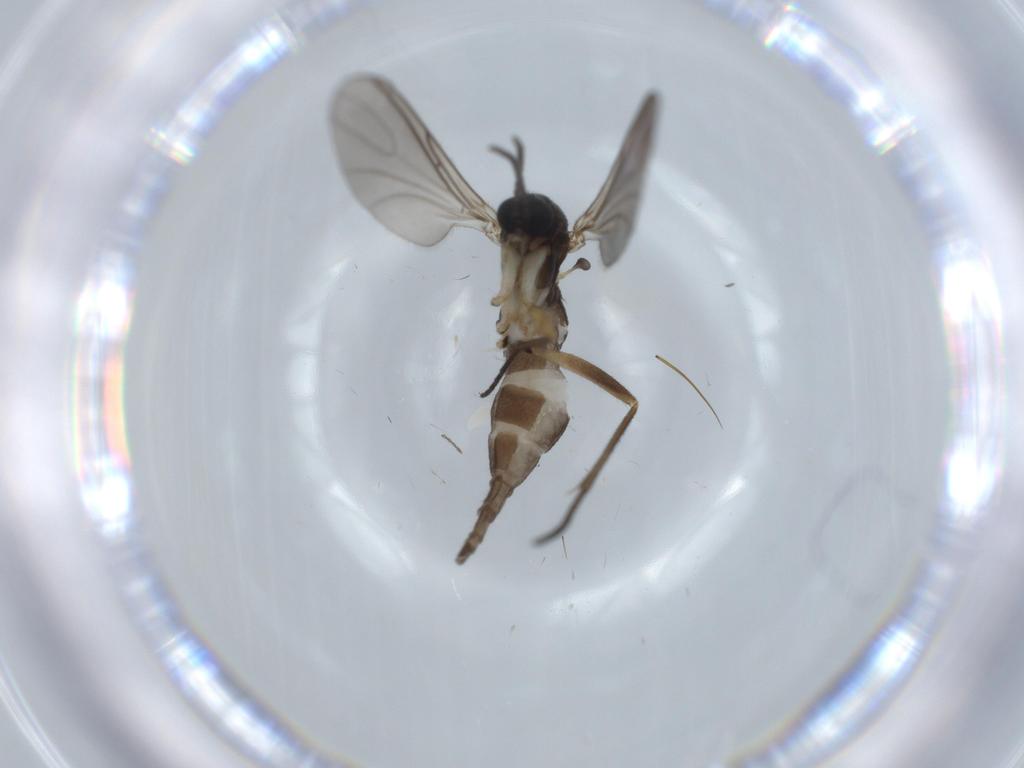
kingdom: Animalia
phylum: Arthropoda
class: Insecta
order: Diptera
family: Sciaridae
